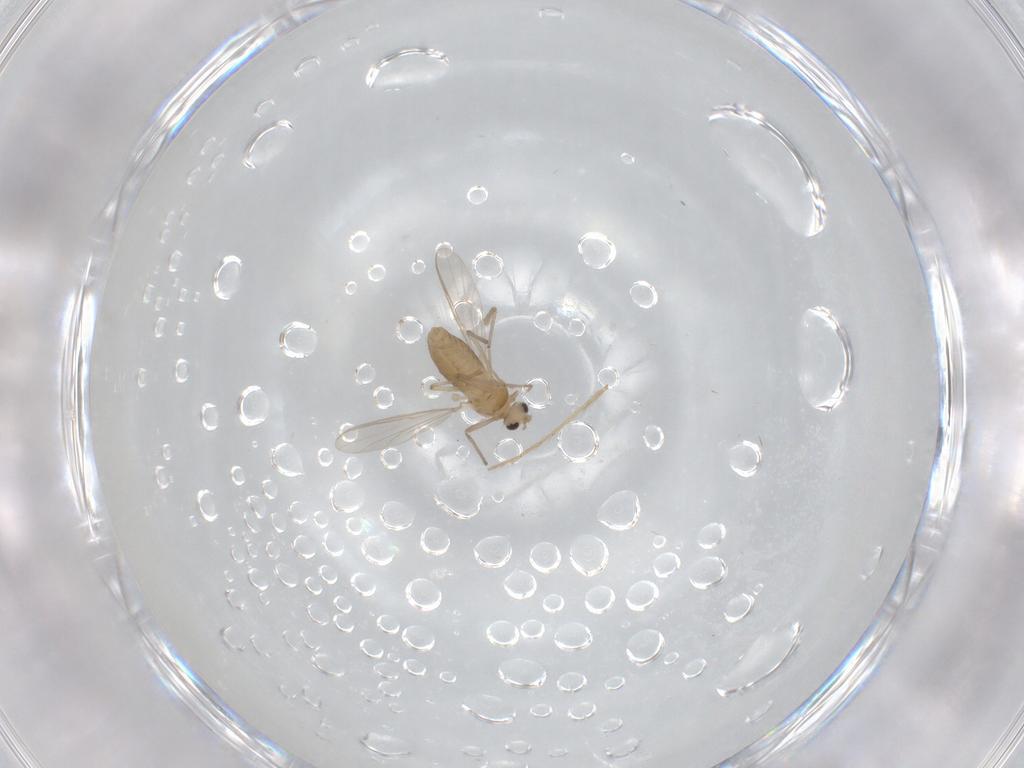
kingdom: Animalia
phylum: Arthropoda
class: Insecta
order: Diptera
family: Chironomidae
